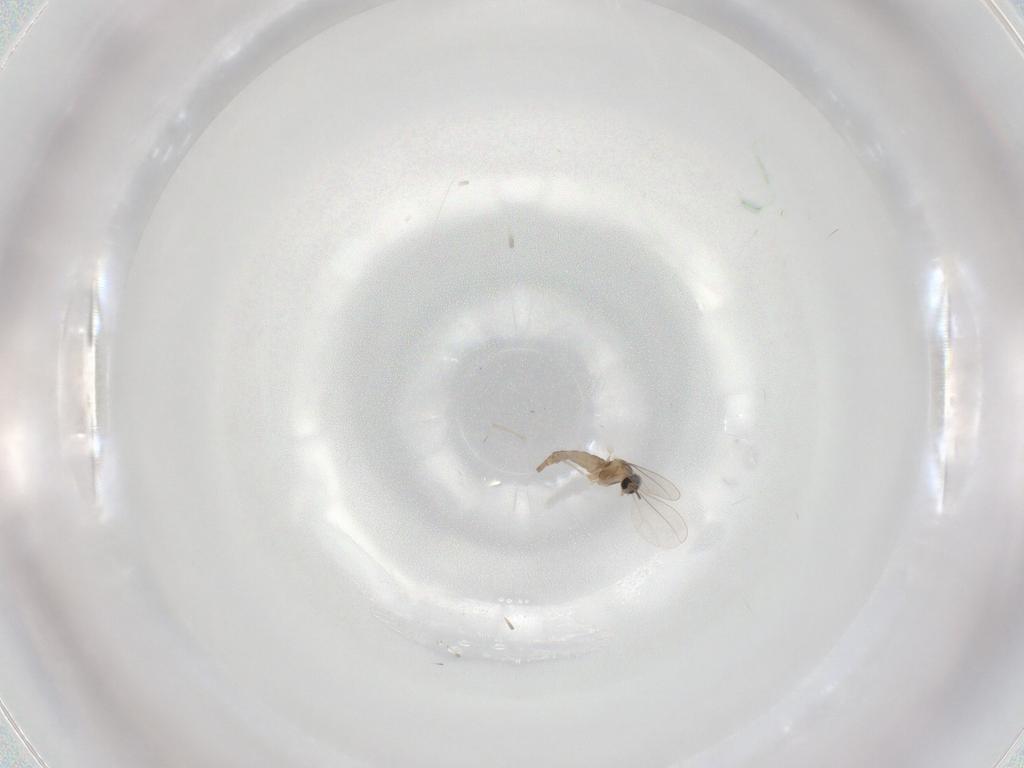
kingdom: Animalia
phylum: Arthropoda
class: Insecta
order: Diptera
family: Cecidomyiidae
